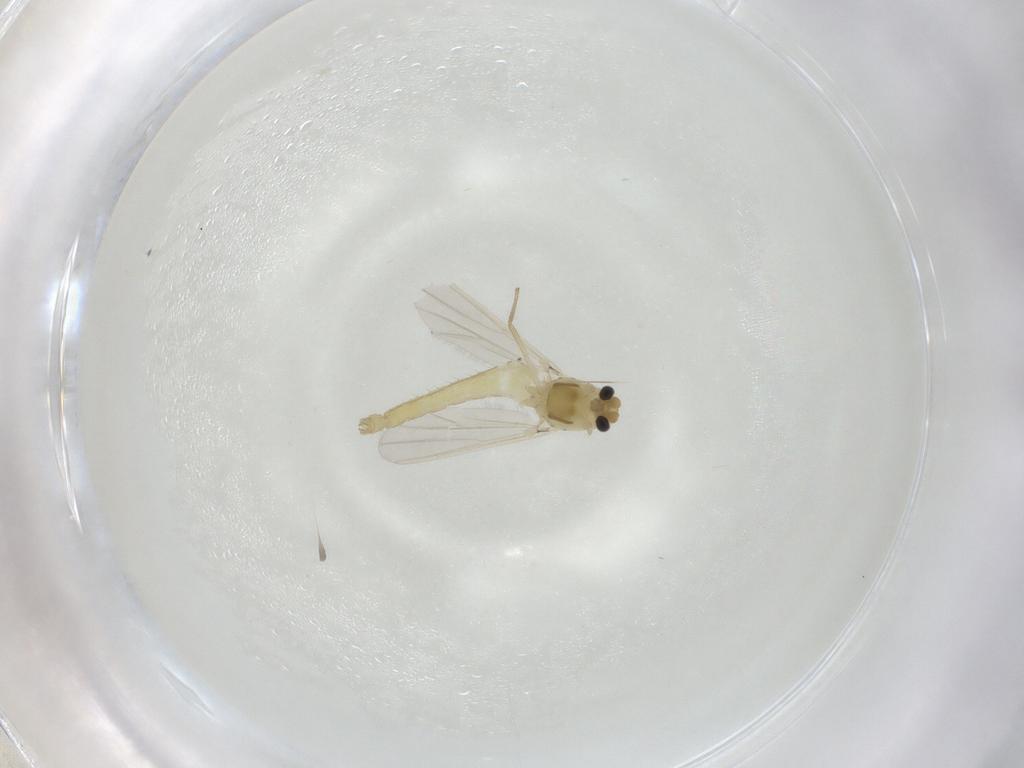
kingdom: Animalia
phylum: Arthropoda
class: Insecta
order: Diptera
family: Chironomidae
